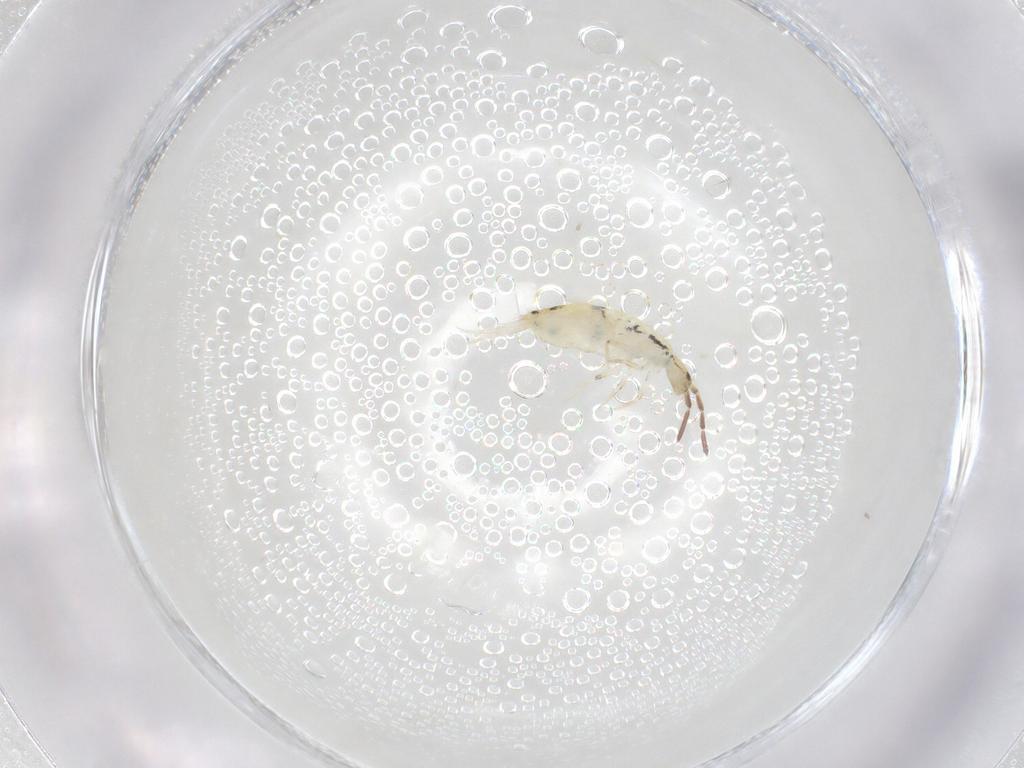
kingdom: Animalia
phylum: Arthropoda
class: Collembola
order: Entomobryomorpha
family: Entomobryidae
